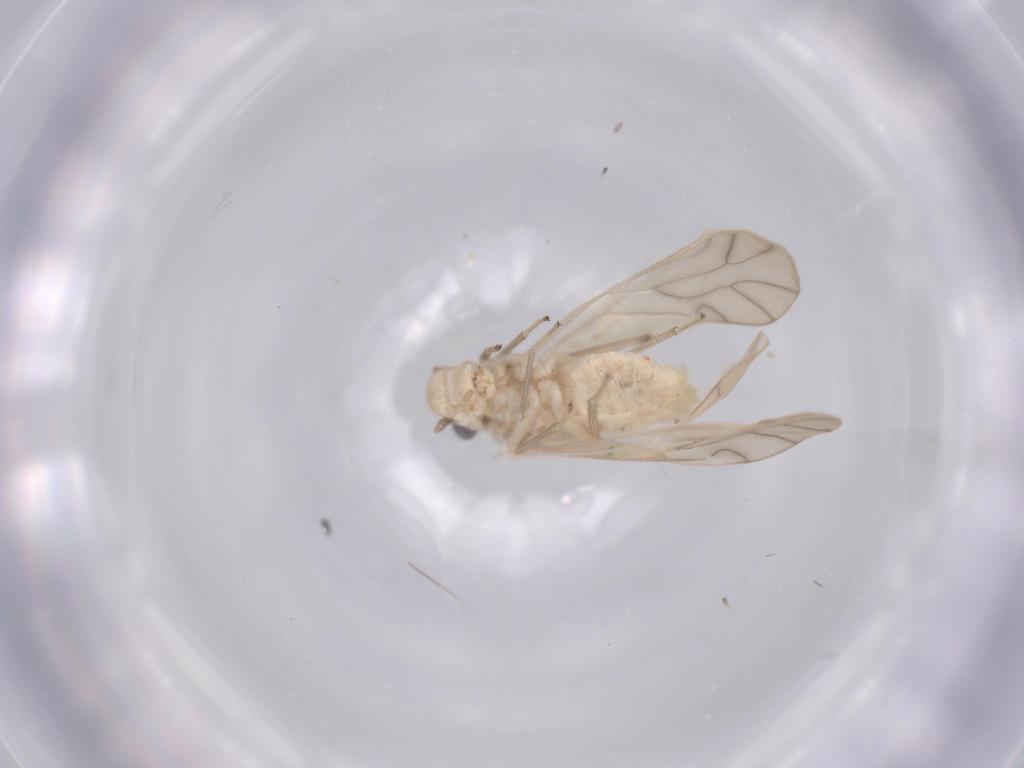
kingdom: Animalia
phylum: Arthropoda
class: Insecta
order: Psocodea
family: Caeciliusidae
